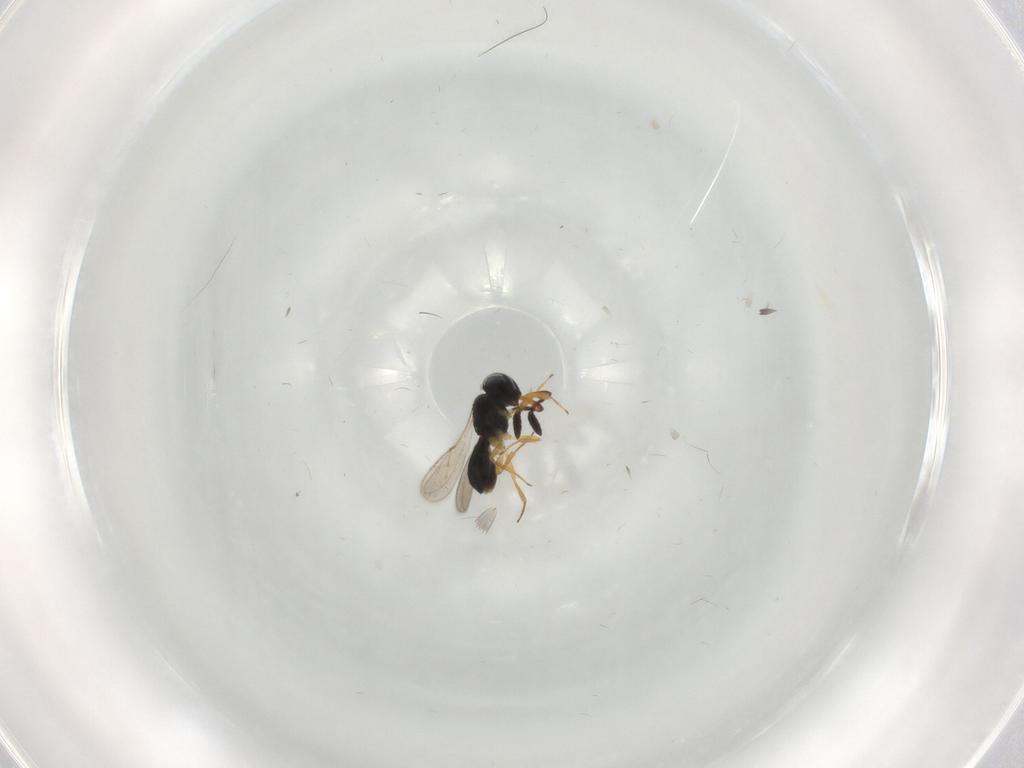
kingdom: Animalia
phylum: Arthropoda
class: Insecta
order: Hymenoptera
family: Scelionidae
